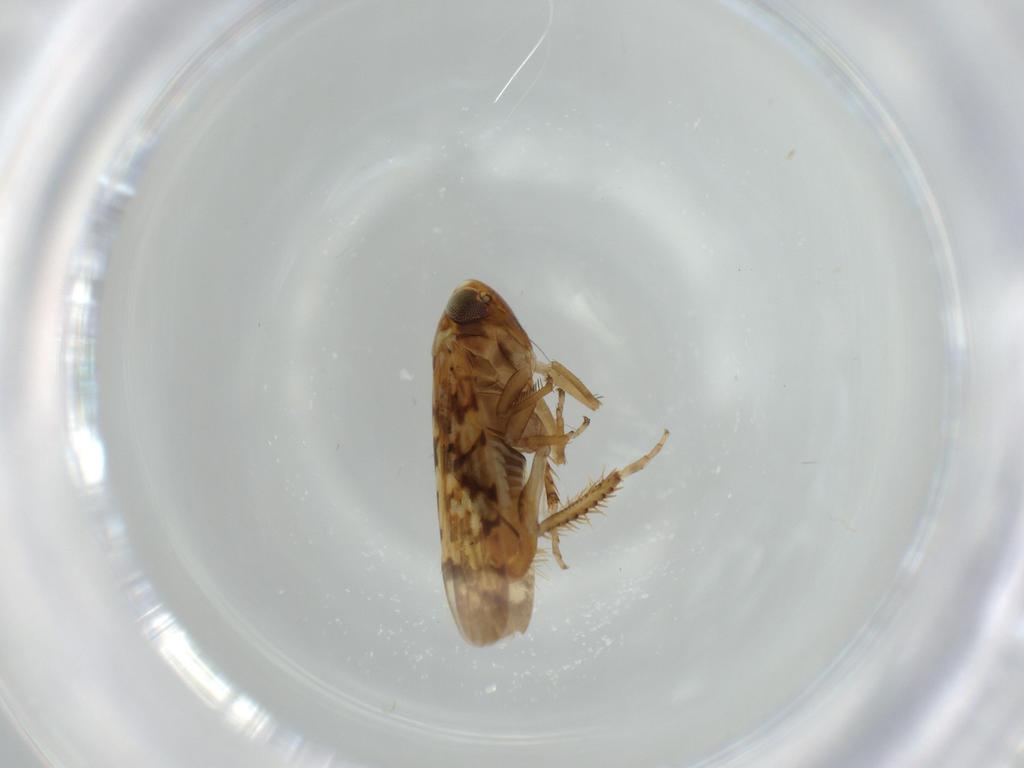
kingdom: Animalia
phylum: Arthropoda
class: Insecta
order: Hemiptera
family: Cicadellidae
